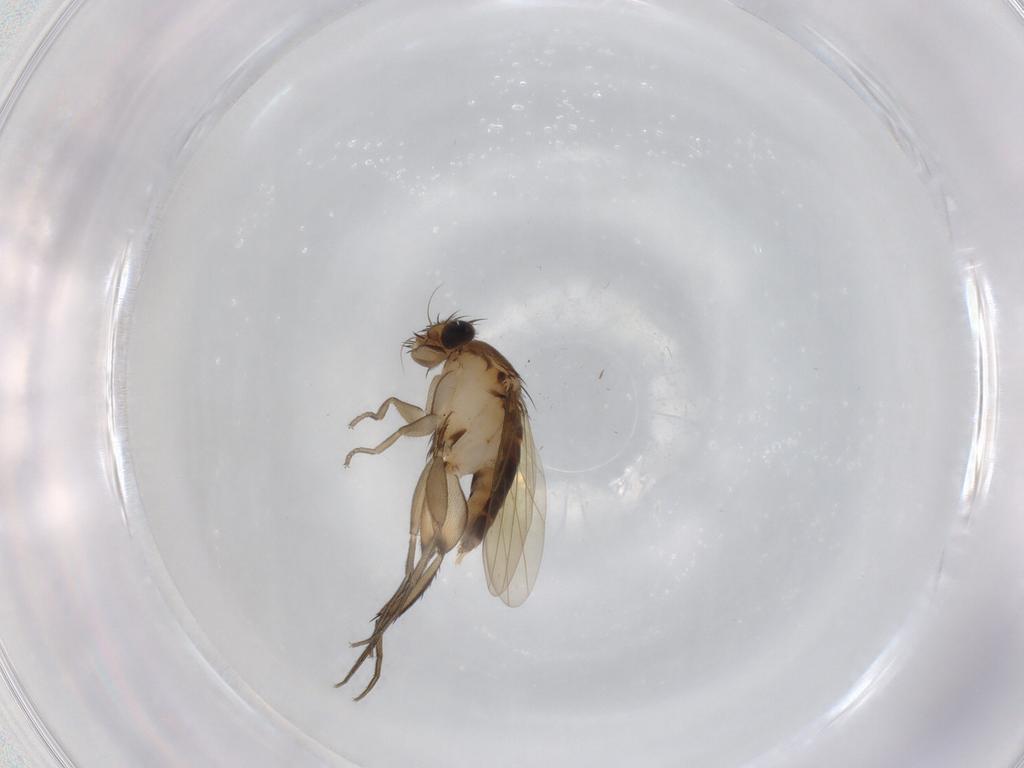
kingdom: Animalia
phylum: Arthropoda
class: Insecta
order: Diptera
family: Phoridae
